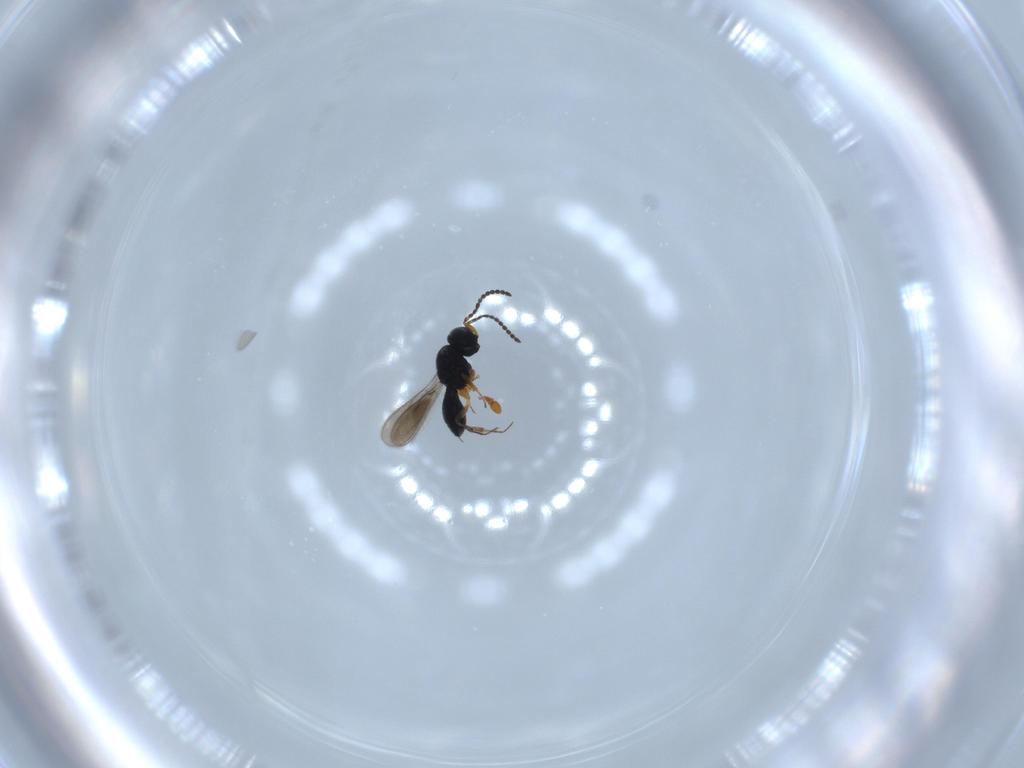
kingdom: Animalia
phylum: Arthropoda
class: Insecta
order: Hymenoptera
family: Scelionidae
